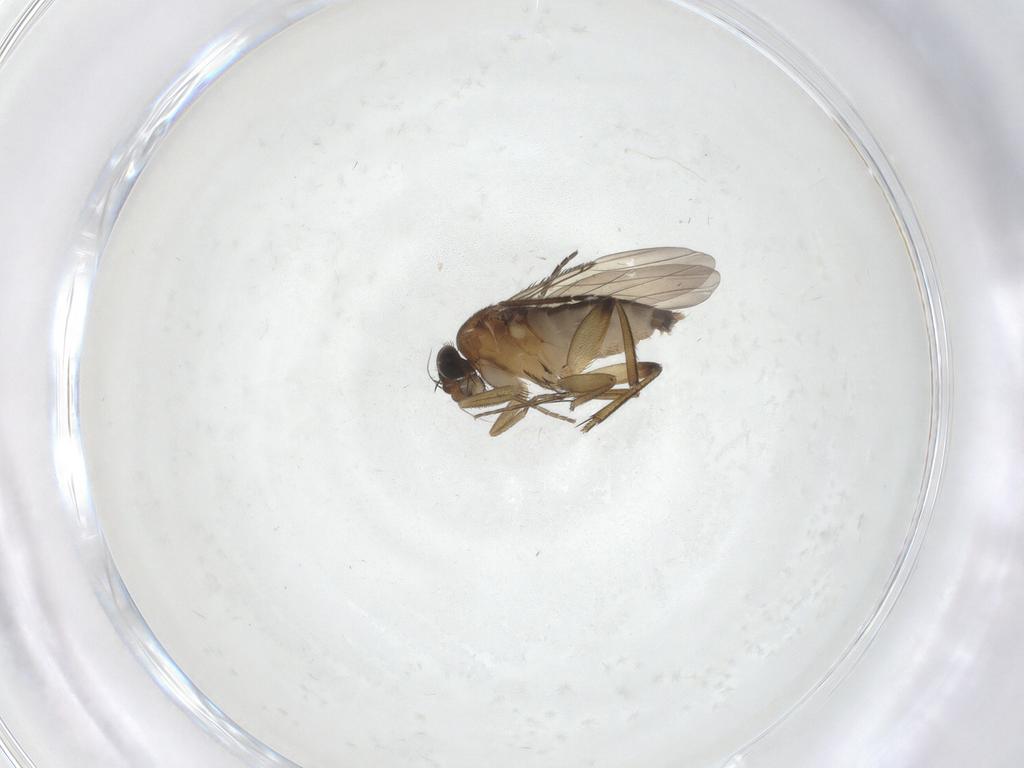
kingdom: Animalia
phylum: Arthropoda
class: Insecta
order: Diptera
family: Phoridae
